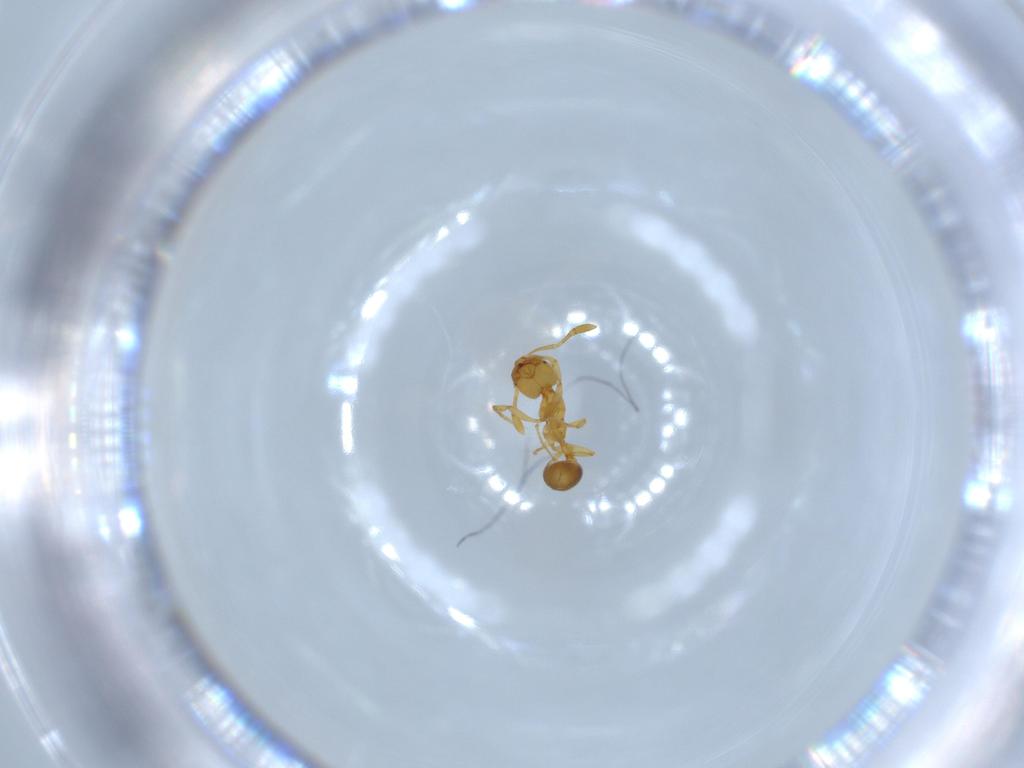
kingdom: Animalia
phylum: Arthropoda
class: Insecta
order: Hymenoptera
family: Formicidae
